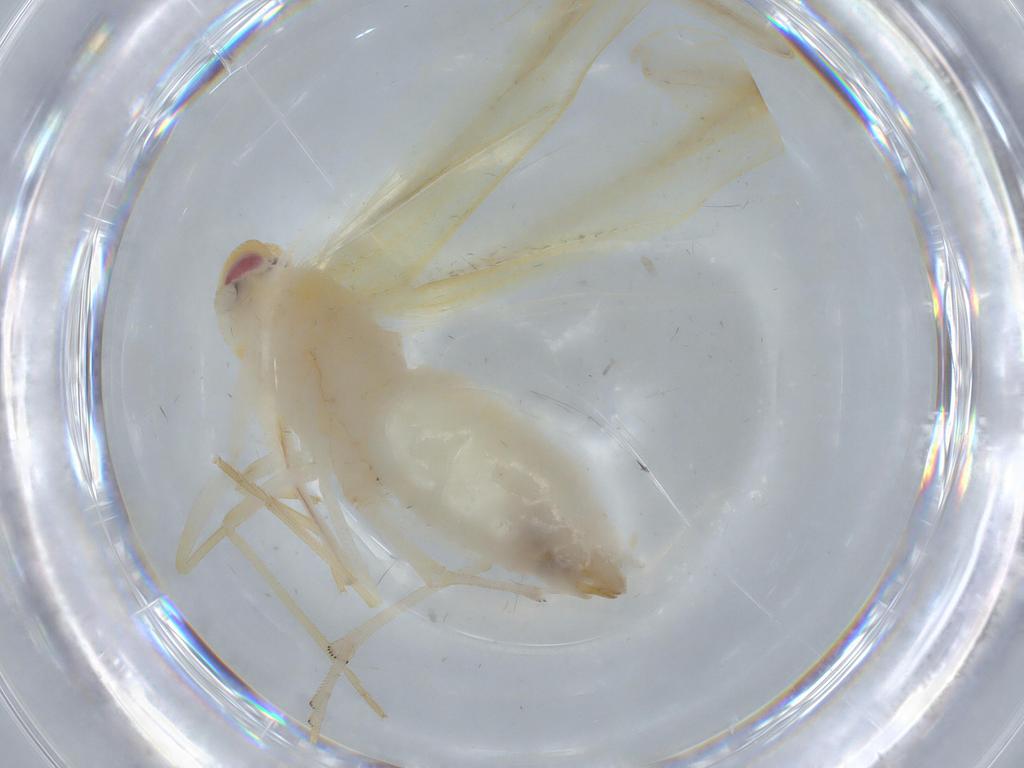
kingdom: Animalia
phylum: Arthropoda
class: Insecta
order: Hemiptera
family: Derbidae
